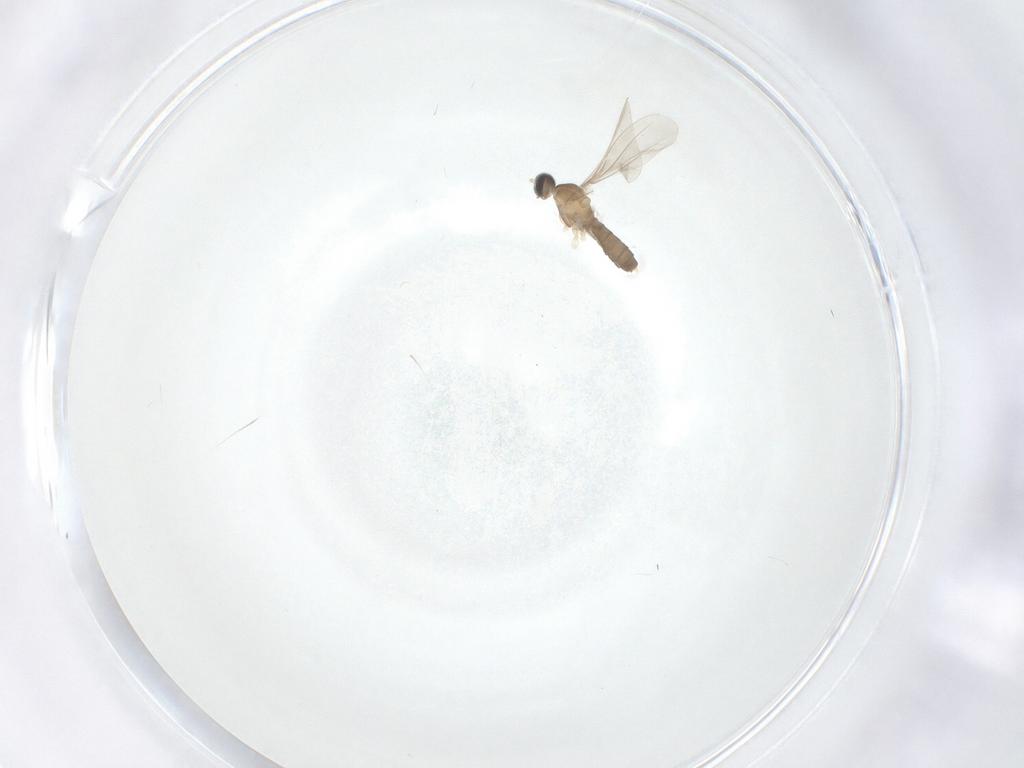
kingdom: Animalia
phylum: Arthropoda
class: Insecta
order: Diptera
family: Cecidomyiidae
